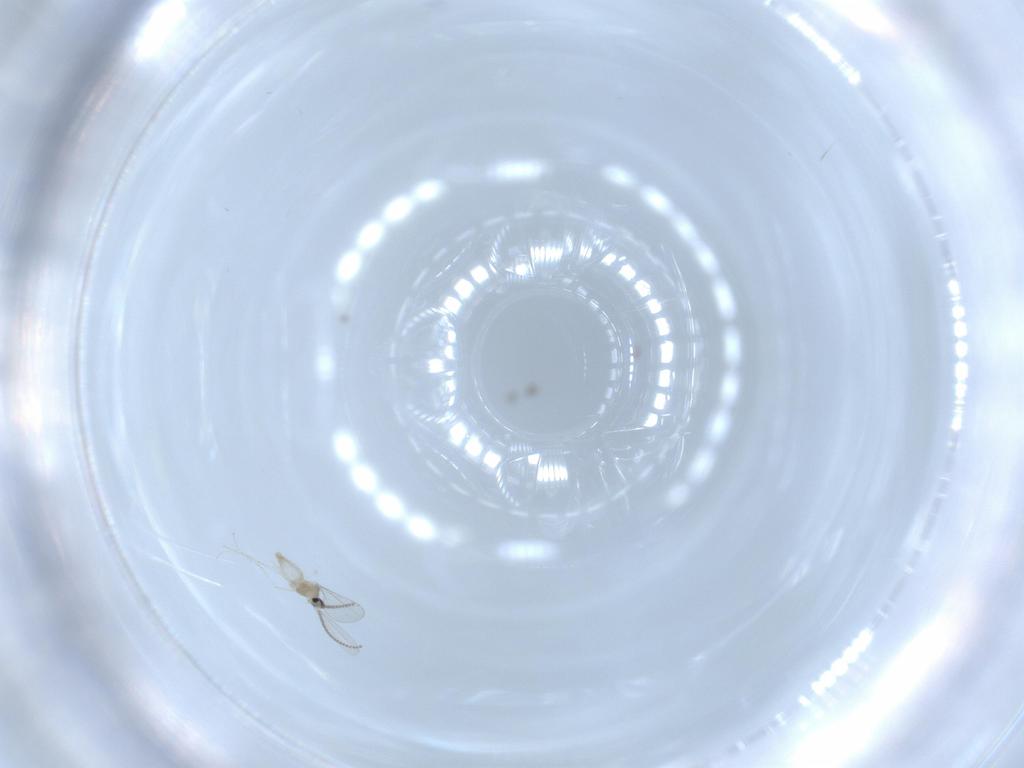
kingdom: Animalia
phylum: Arthropoda
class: Insecta
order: Diptera
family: Cecidomyiidae
